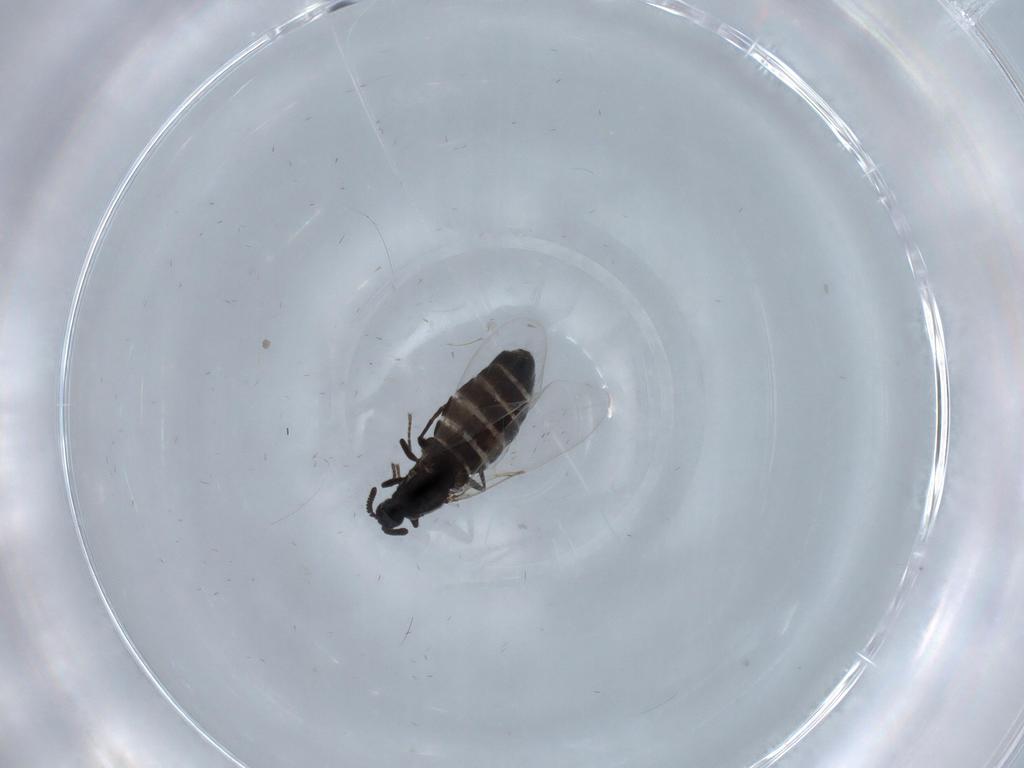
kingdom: Animalia
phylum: Arthropoda
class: Insecta
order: Diptera
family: Scatopsidae
